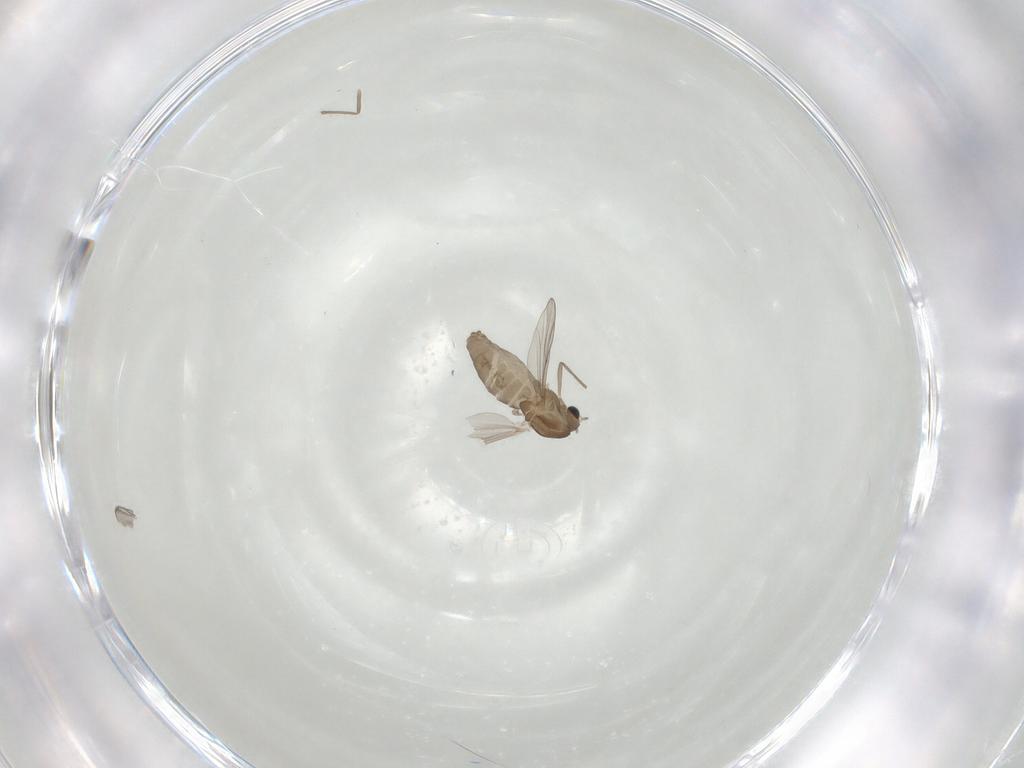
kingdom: Animalia
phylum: Arthropoda
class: Insecta
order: Diptera
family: Chironomidae
